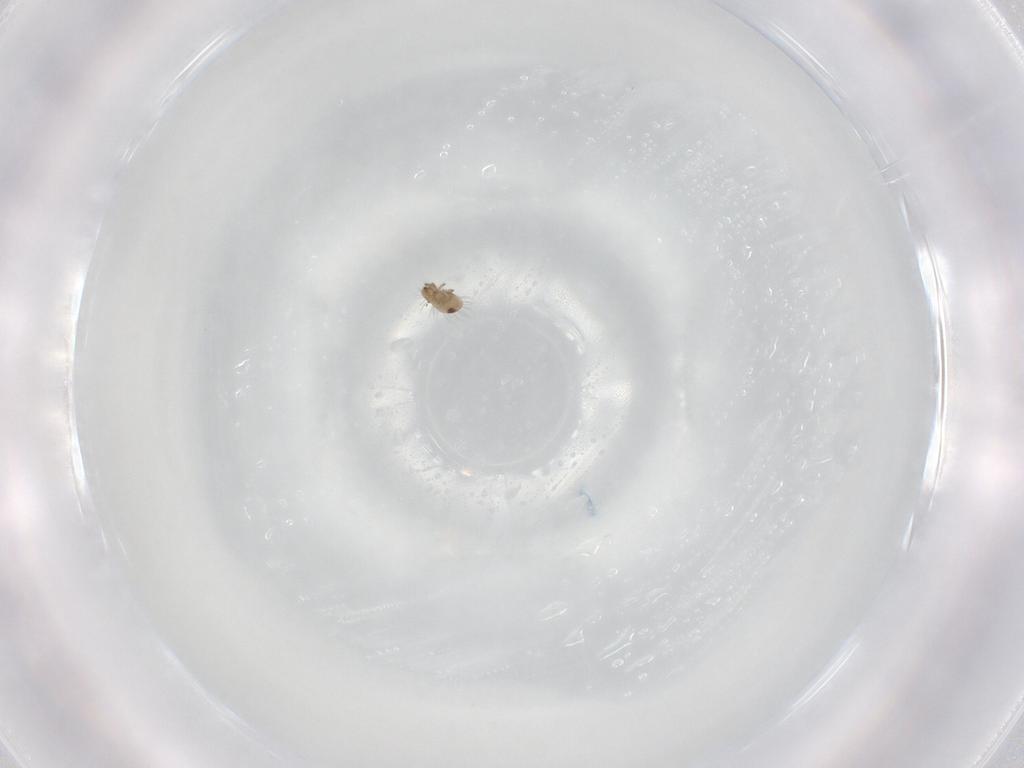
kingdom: Animalia
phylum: Arthropoda
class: Arachnida
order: Sarcoptiformes
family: Humerobatidae
